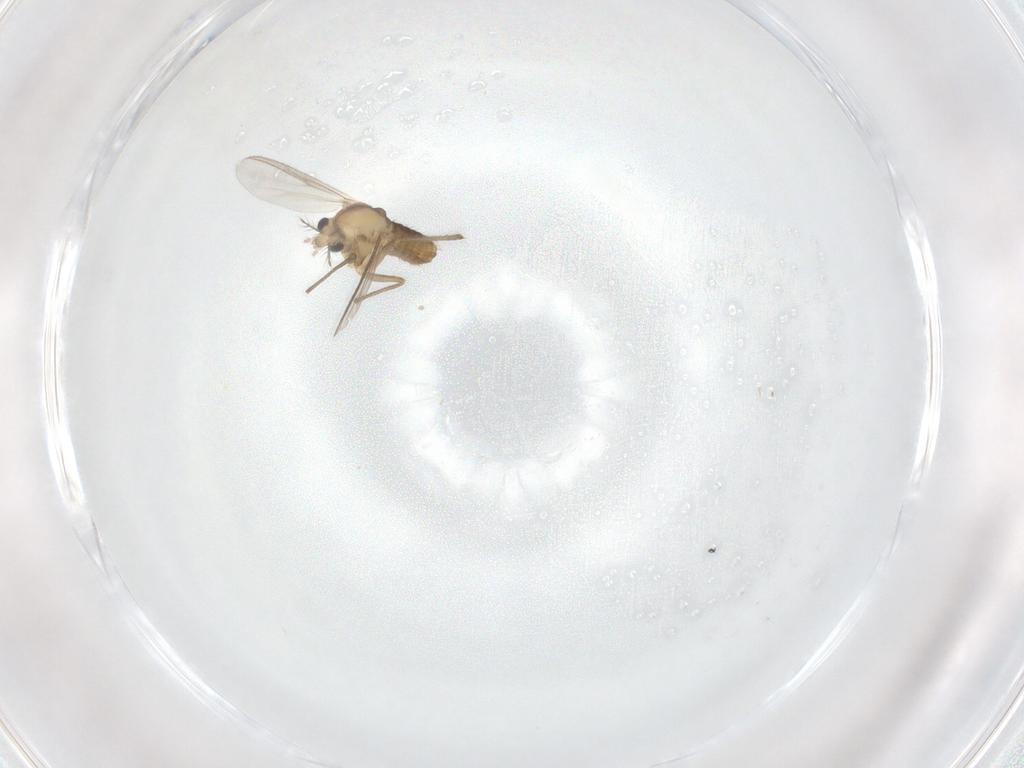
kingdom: Animalia
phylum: Arthropoda
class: Insecta
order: Diptera
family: Chironomidae
